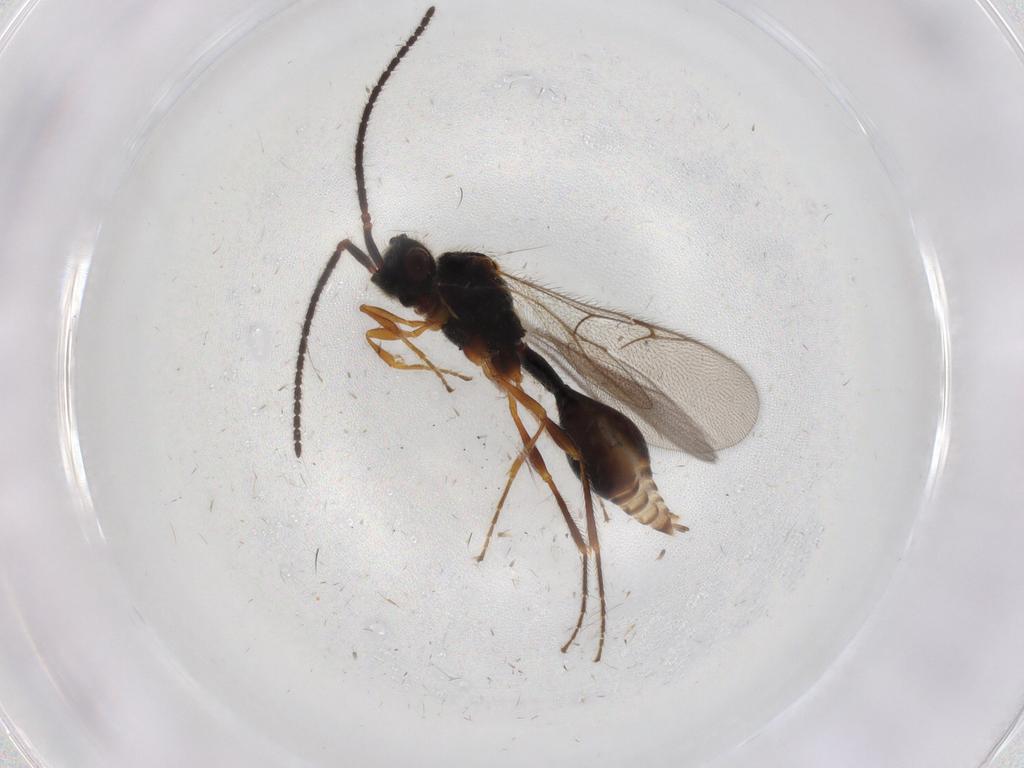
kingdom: Animalia
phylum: Arthropoda
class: Insecta
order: Hymenoptera
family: Diapriidae
